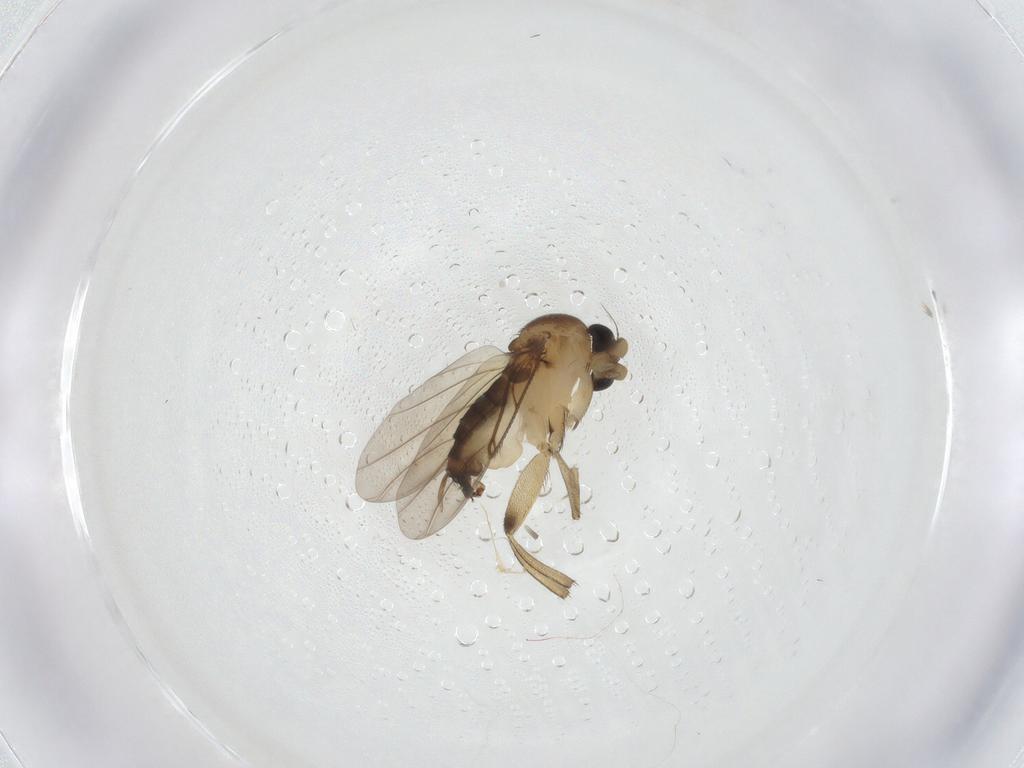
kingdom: Animalia
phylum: Arthropoda
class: Insecta
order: Diptera
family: Phoridae
